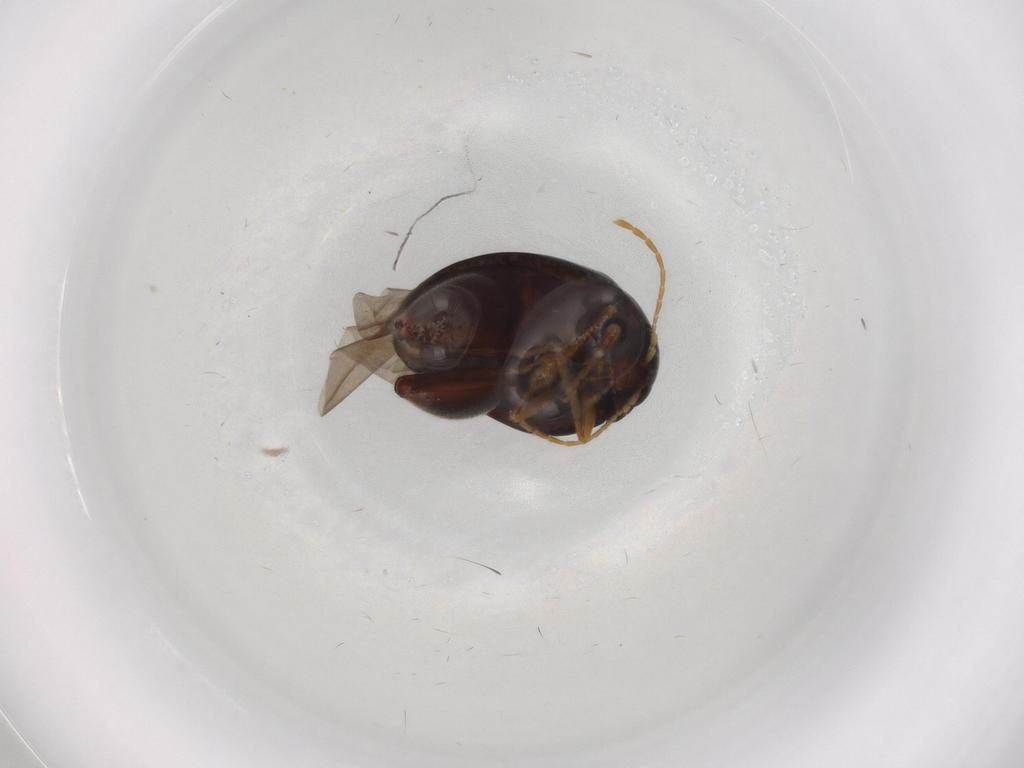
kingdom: Animalia
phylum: Arthropoda
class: Insecta
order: Coleoptera
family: Chrysomelidae
